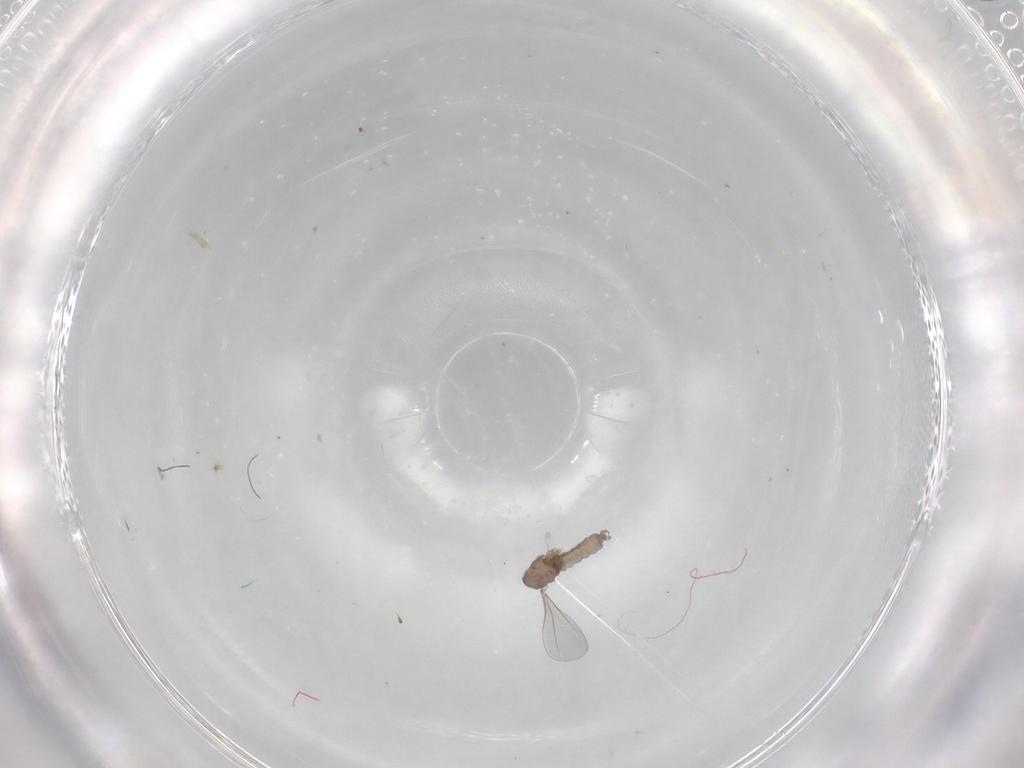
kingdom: Animalia
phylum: Arthropoda
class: Insecta
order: Diptera
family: Cecidomyiidae
